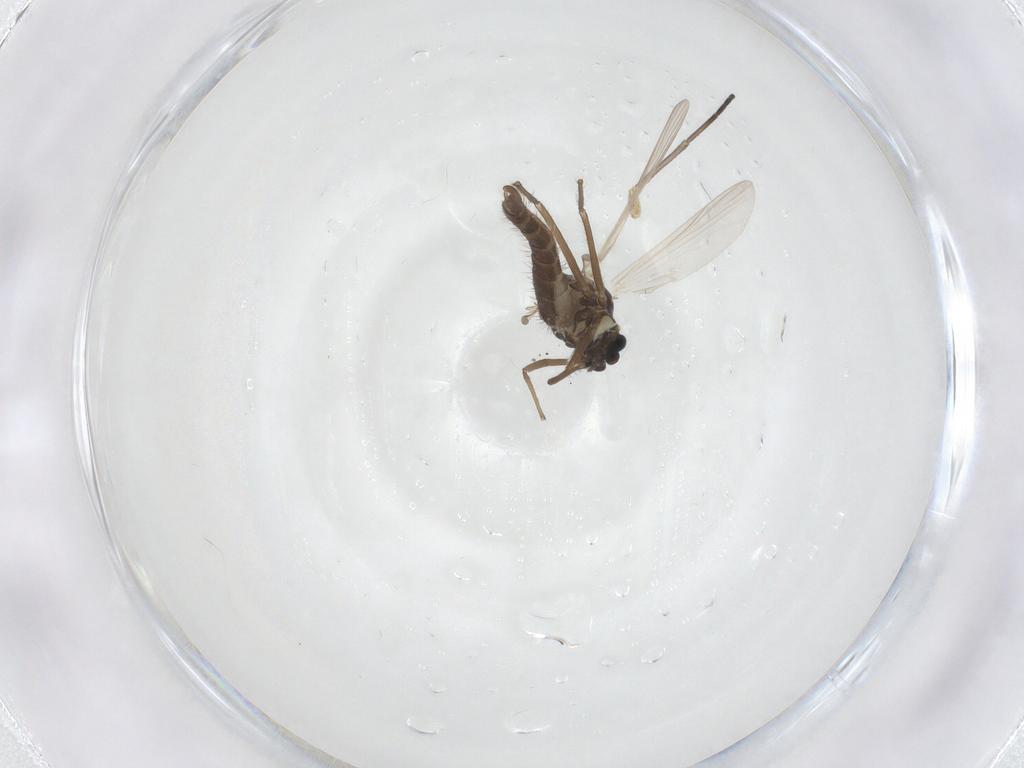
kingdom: Animalia
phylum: Arthropoda
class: Insecta
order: Diptera
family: Chironomidae
